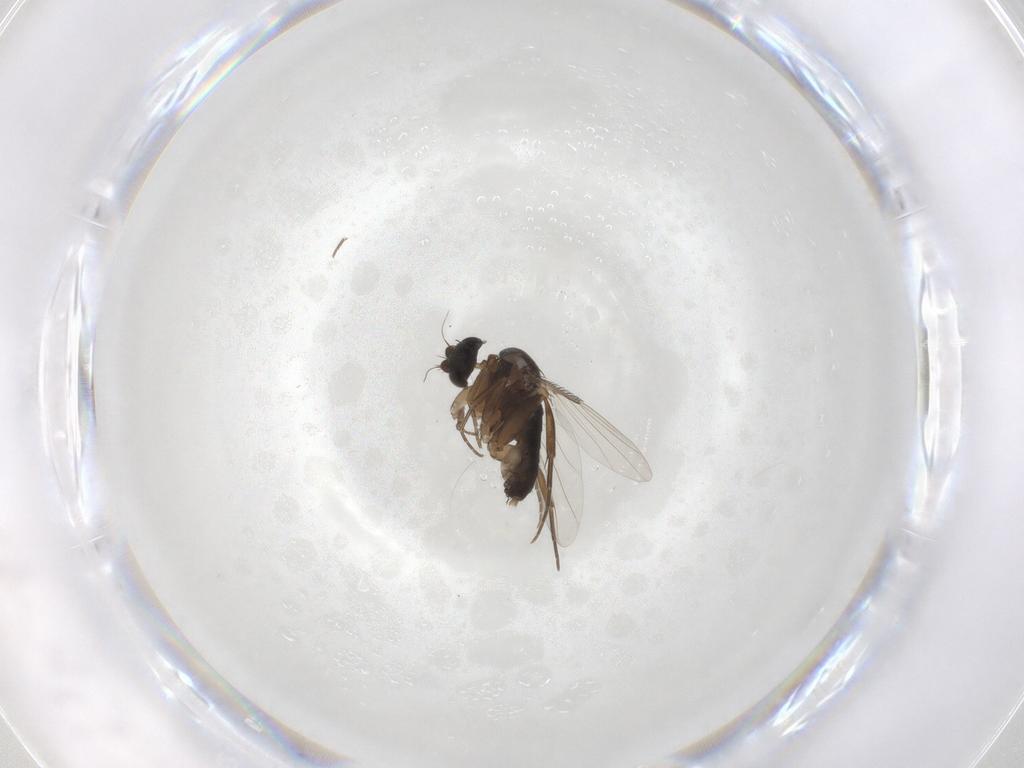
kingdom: Animalia
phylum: Arthropoda
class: Insecta
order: Diptera
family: Phoridae
